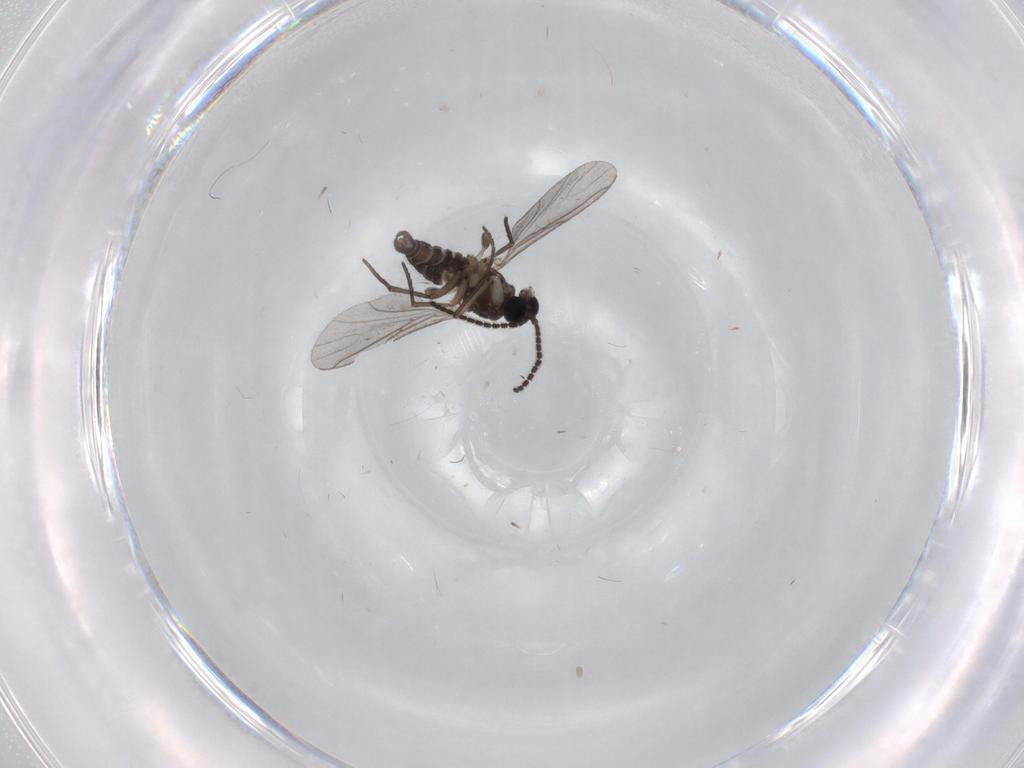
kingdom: Animalia
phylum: Arthropoda
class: Insecta
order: Diptera
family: Sciaridae
